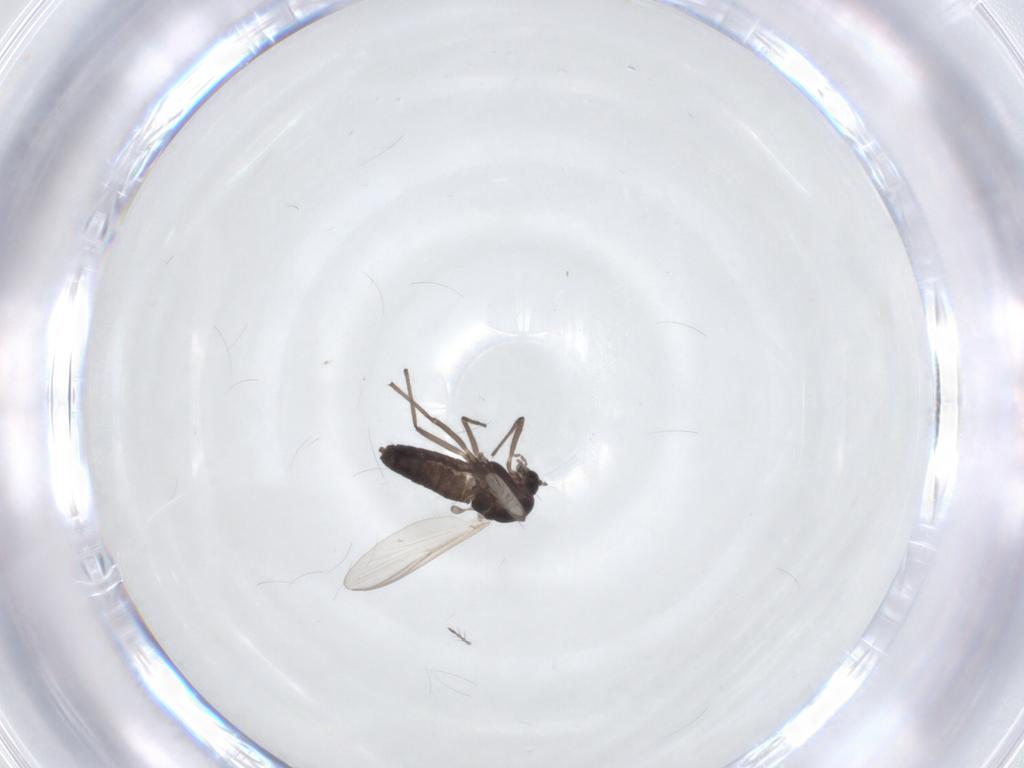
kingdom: Animalia
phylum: Arthropoda
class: Insecta
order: Diptera
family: Chironomidae
